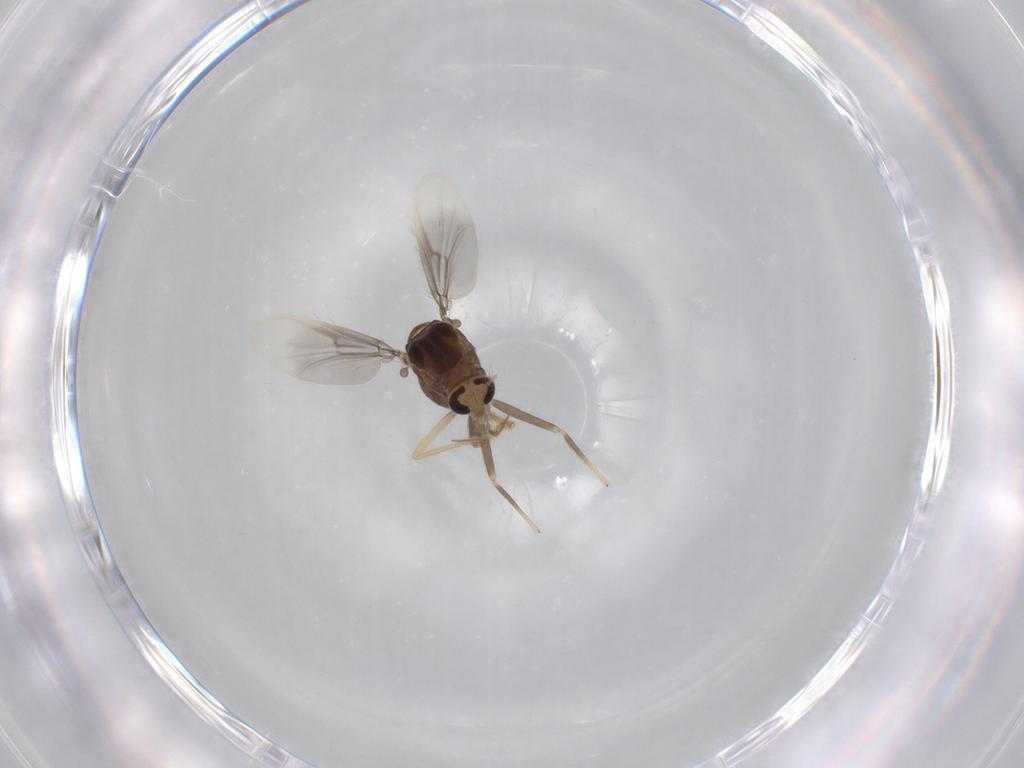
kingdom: Animalia
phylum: Arthropoda
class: Insecta
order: Diptera
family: Chironomidae
